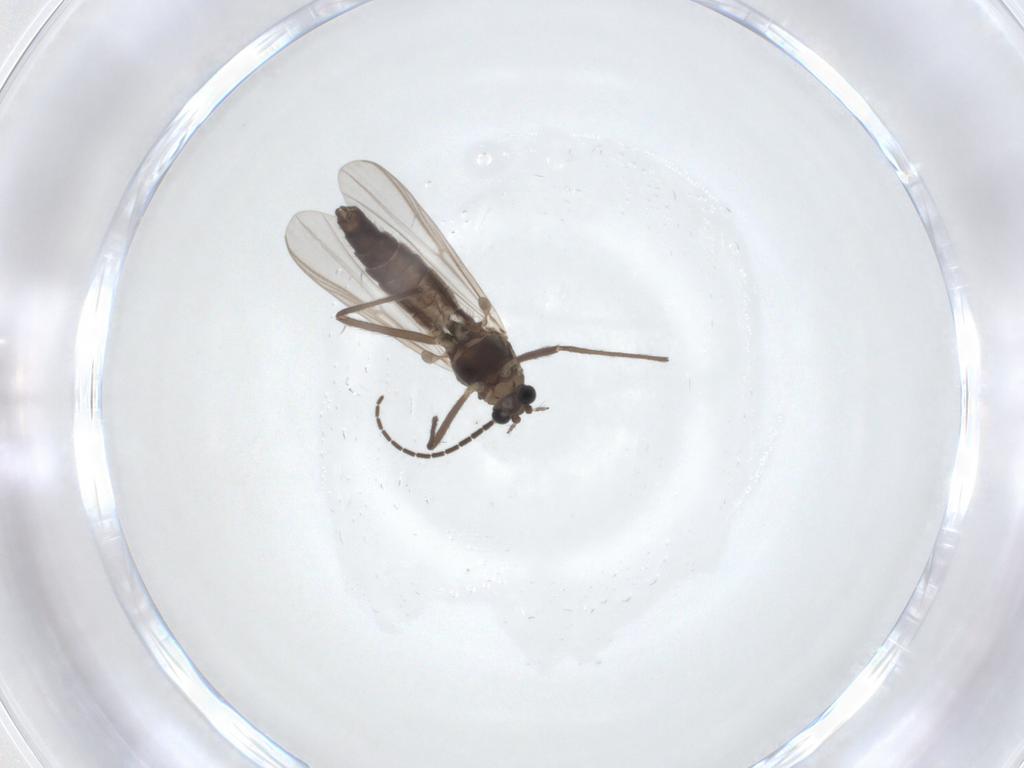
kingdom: Animalia
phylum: Arthropoda
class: Insecta
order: Diptera
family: Chironomidae
